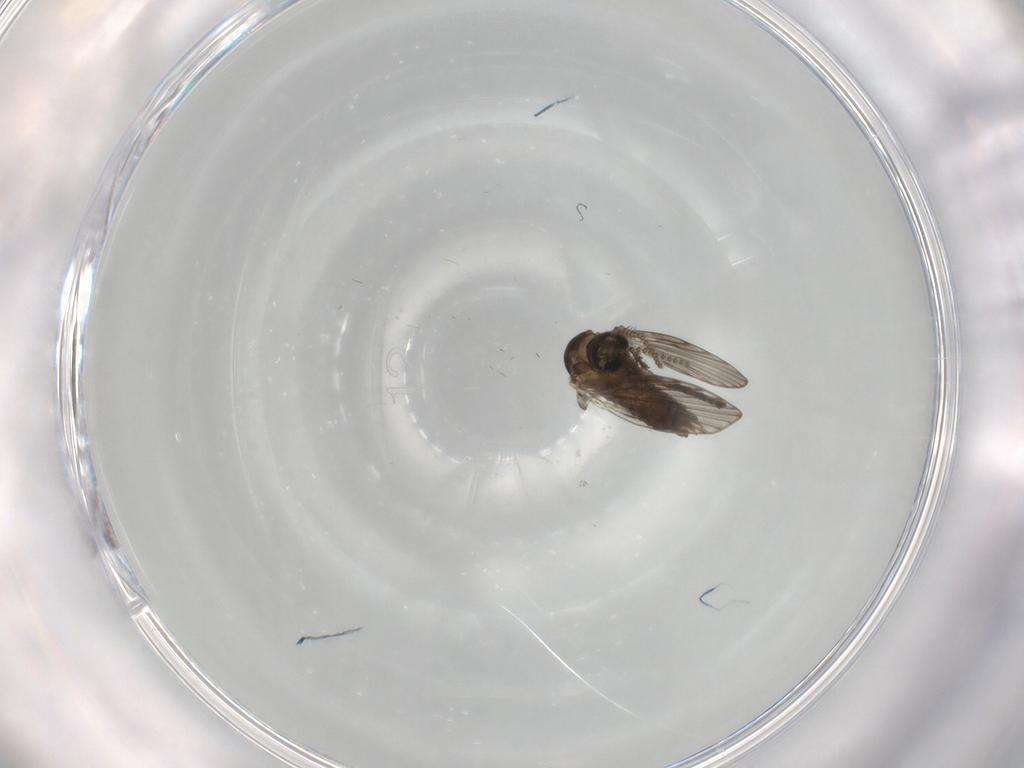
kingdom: Animalia
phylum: Arthropoda
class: Insecta
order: Diptera
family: Psychodidae
